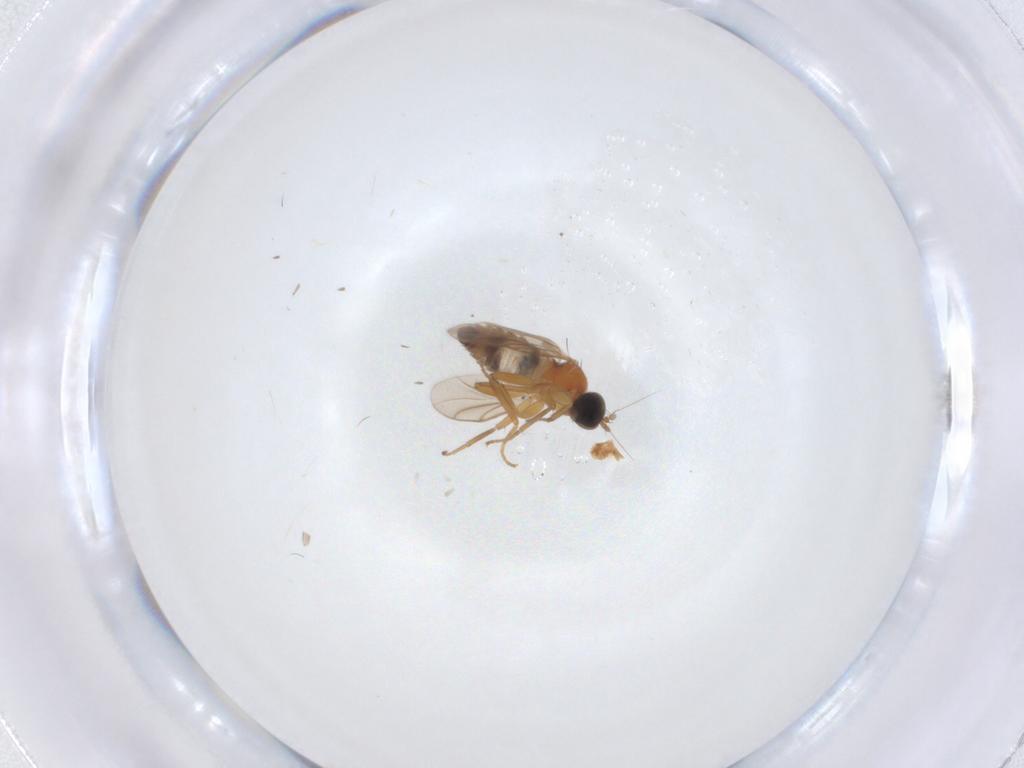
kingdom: Animalia
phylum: Arthropoda
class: Insecta
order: Diptera
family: Hybotidae
